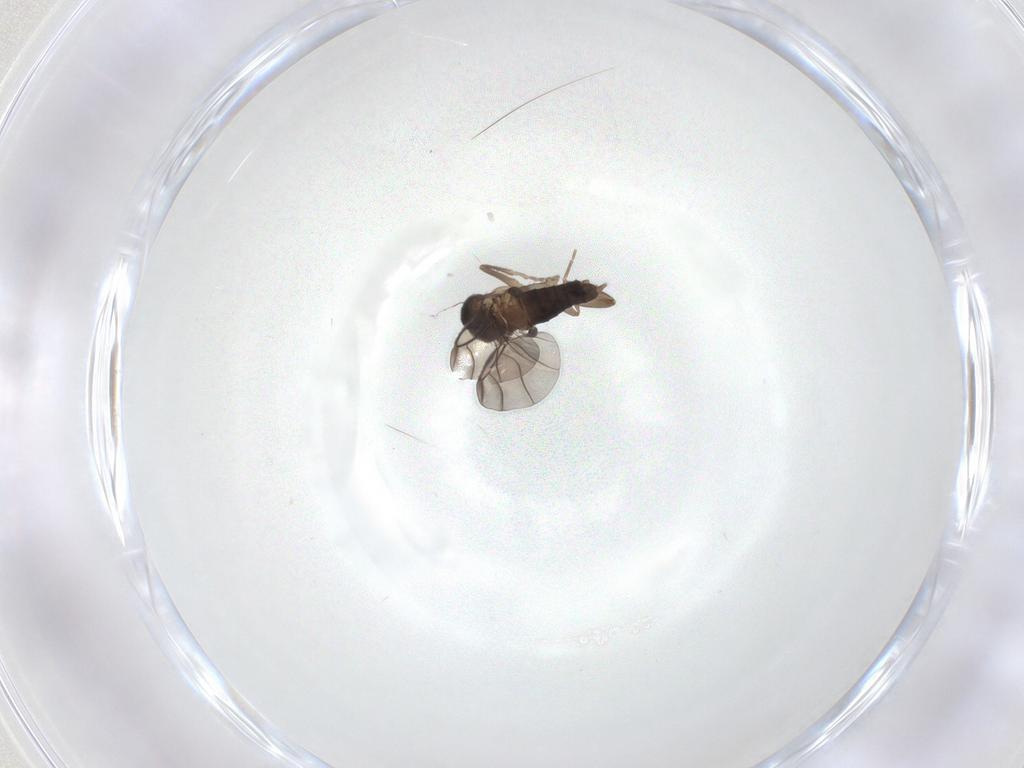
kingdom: Animalia
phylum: Arthropoda
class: Insecta
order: Diptera
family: Phoridae
